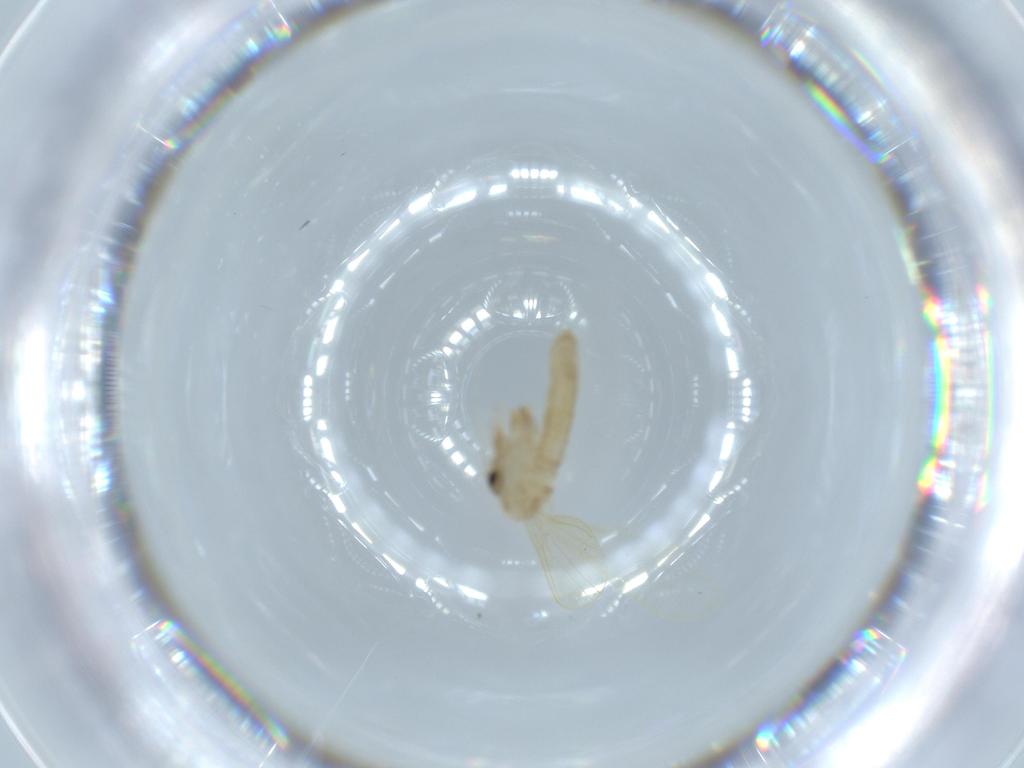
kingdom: Animalia
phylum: Arthropoda
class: Insecta
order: Diptera
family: Psychodidae
